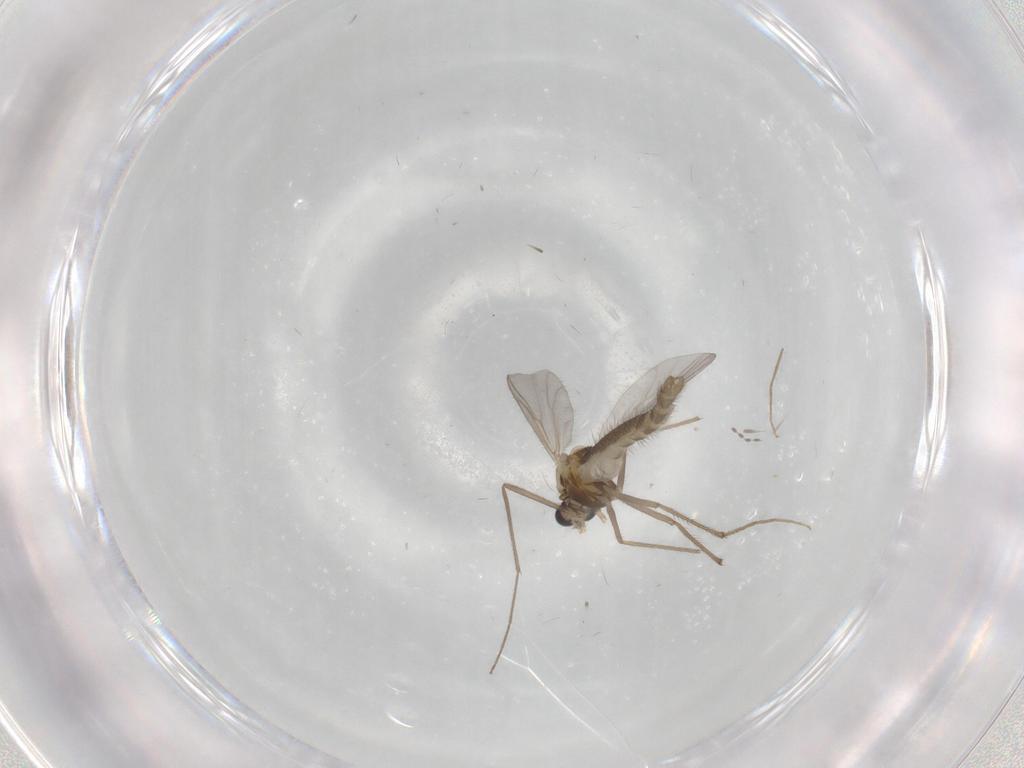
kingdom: Animalia
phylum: Arthropoda
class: Insecta
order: Diptera
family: Chironomidae
